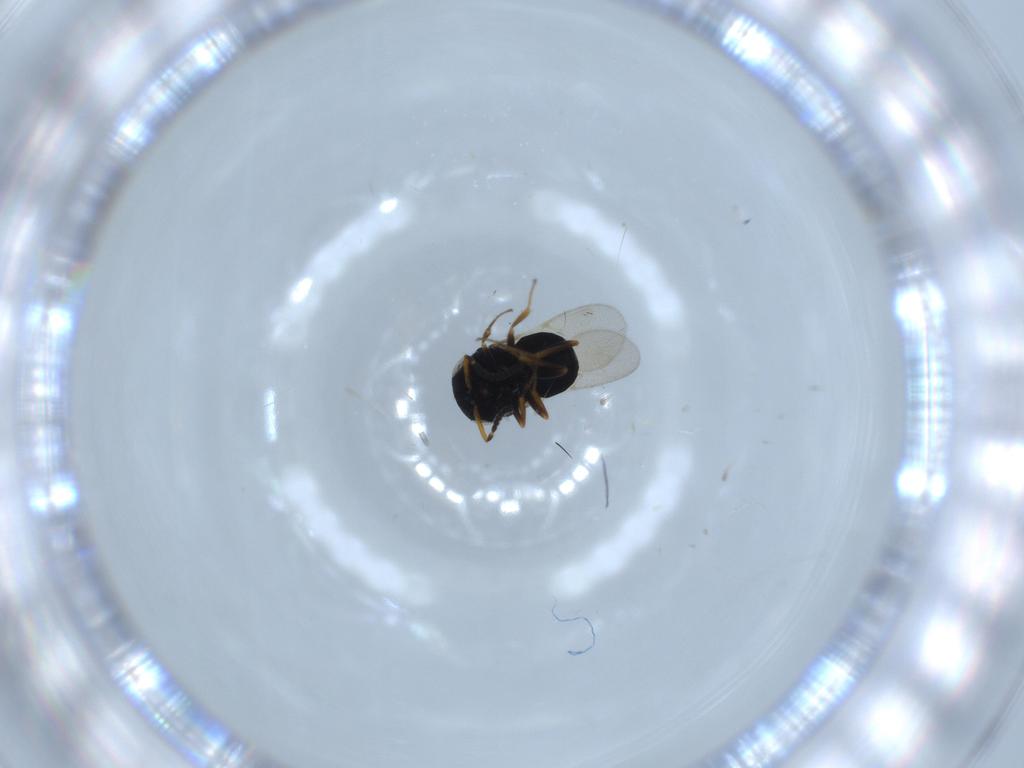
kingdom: Animalia
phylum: Arthropoda
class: Insecta
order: Hymenoptera
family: Scelionidae
